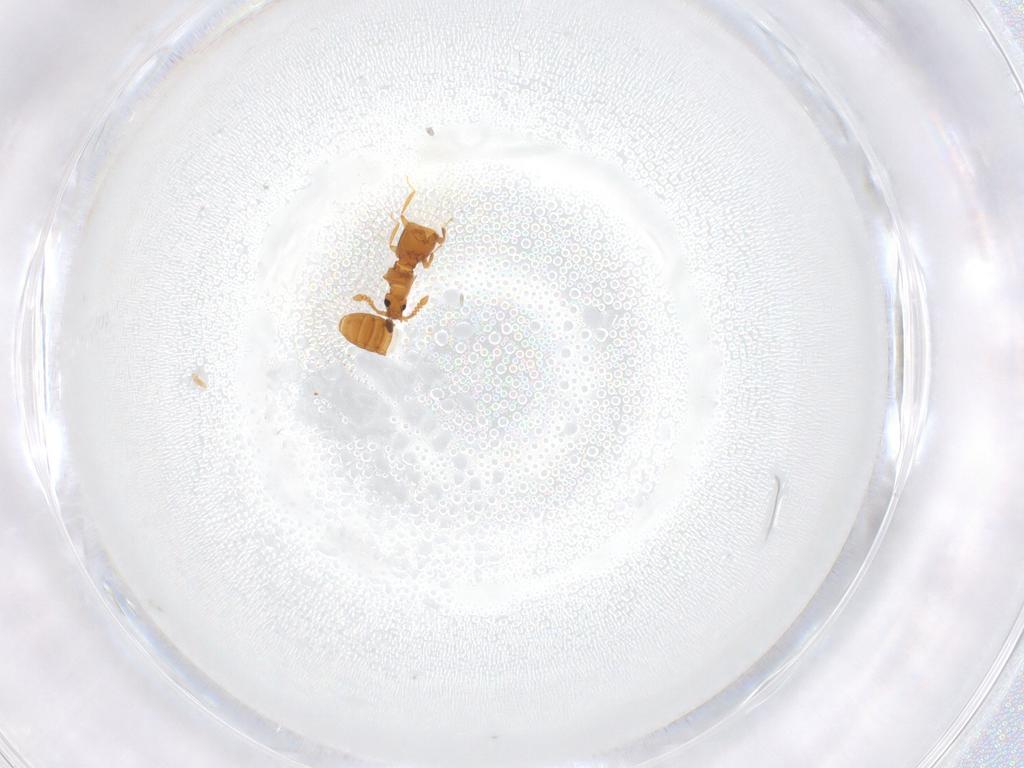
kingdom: Animalia
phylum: Arthropoda
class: Insecta
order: Coleoptera
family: Staphylinidae
